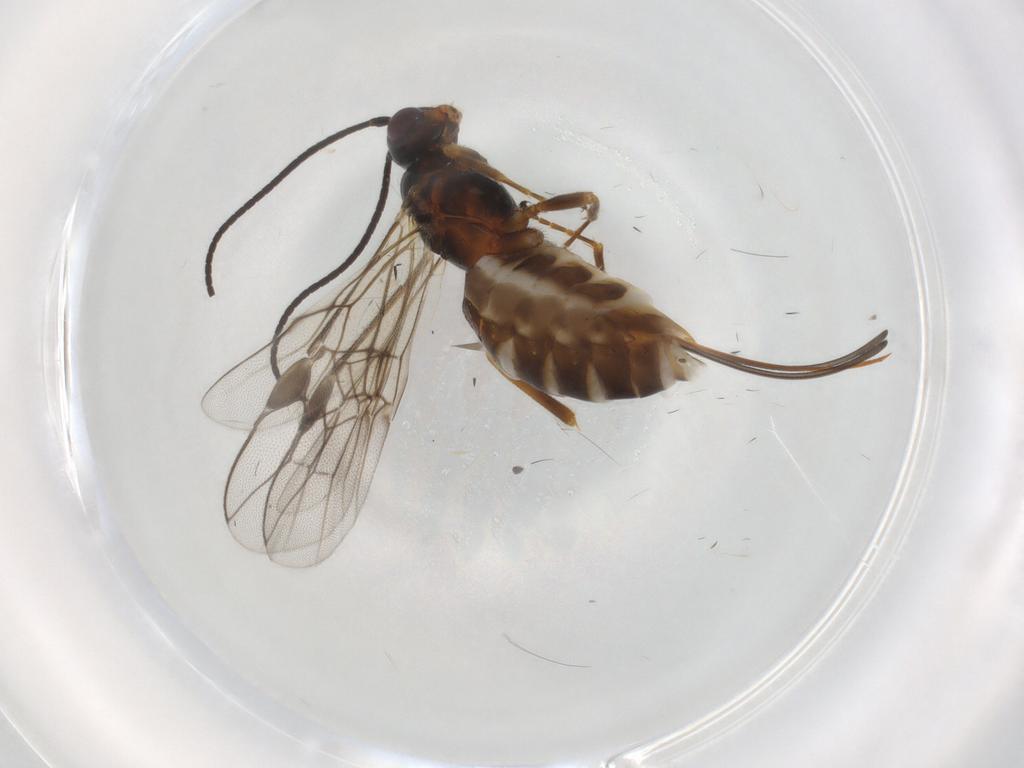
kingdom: Animalia
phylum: Arthropoda
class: Insecta
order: Hymenoptera
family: Braconidae
